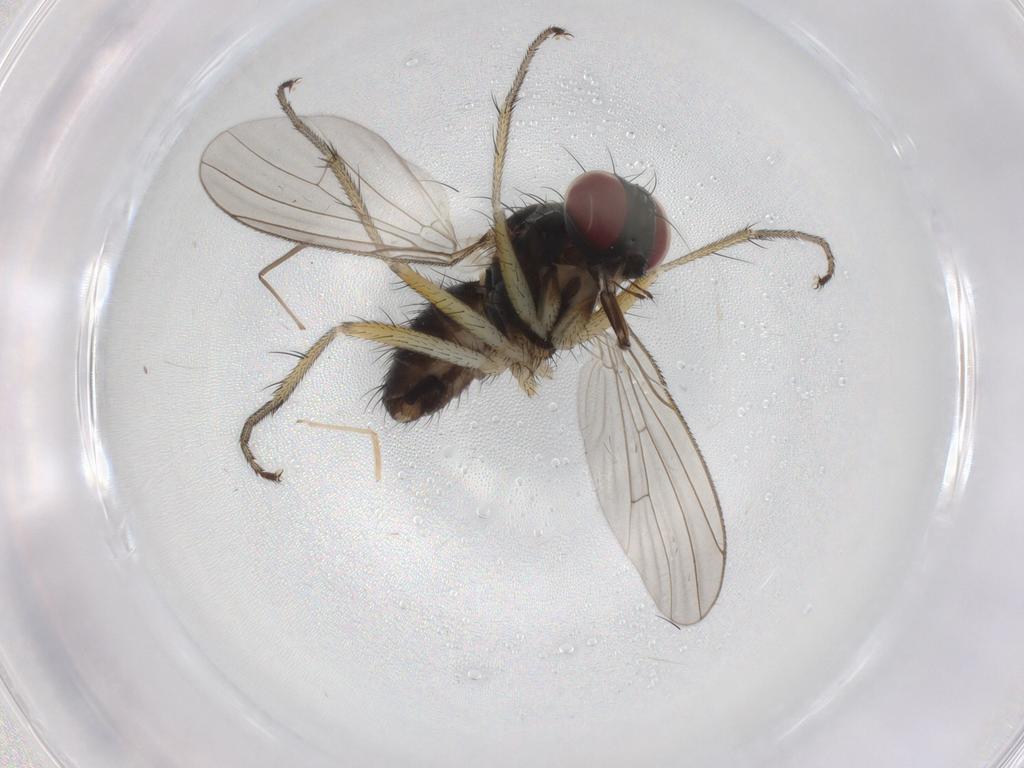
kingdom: Animalia
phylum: Arthropoda
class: Insecta
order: Diptera
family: Muscidae
